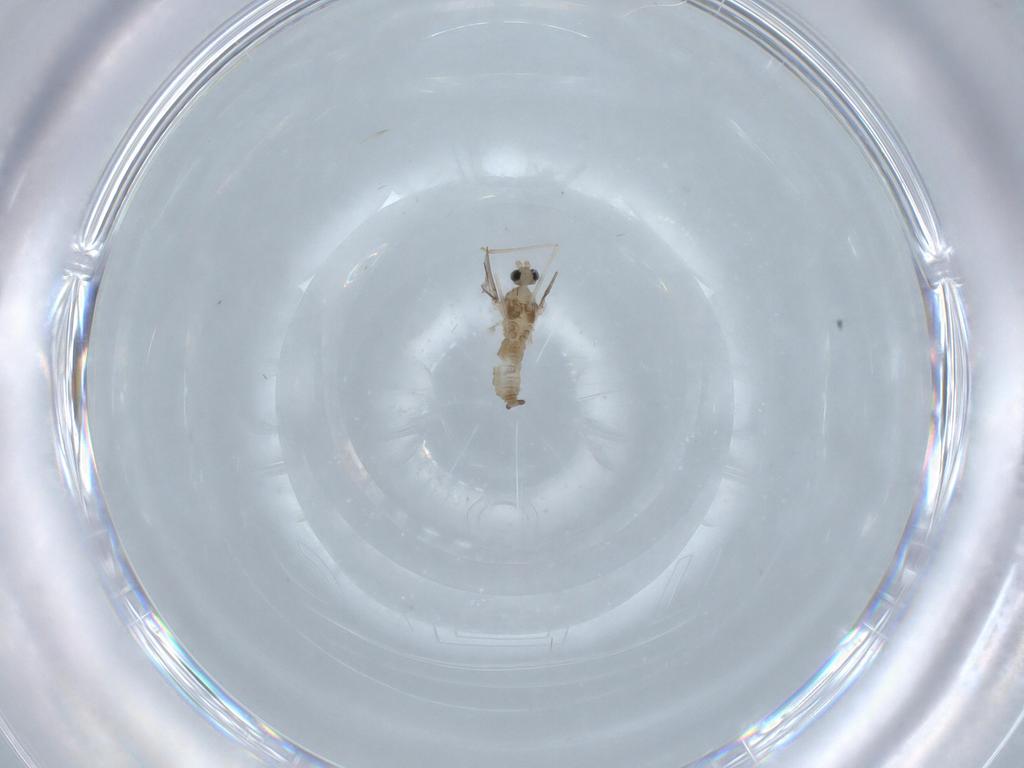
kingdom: Animalia
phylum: Arthropoda
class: Insecta
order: Diptera
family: Cecidomyiidae
